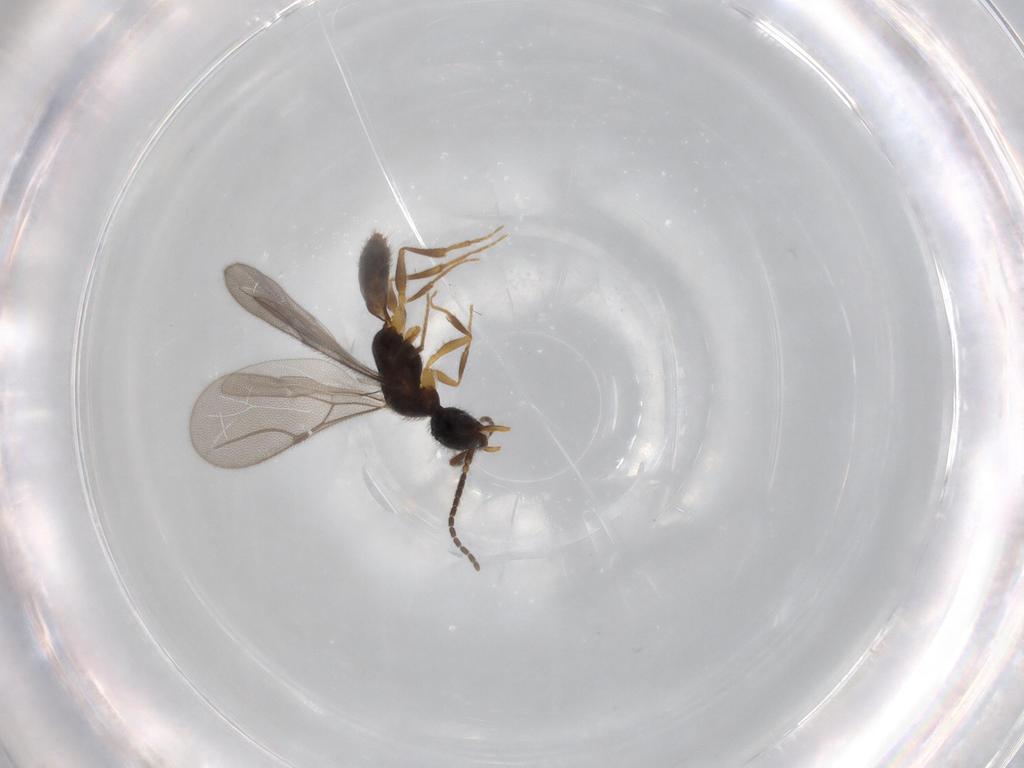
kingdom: Animalia
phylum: Arthropoda
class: Insecta
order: Hymenoptera
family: Bethylidae
